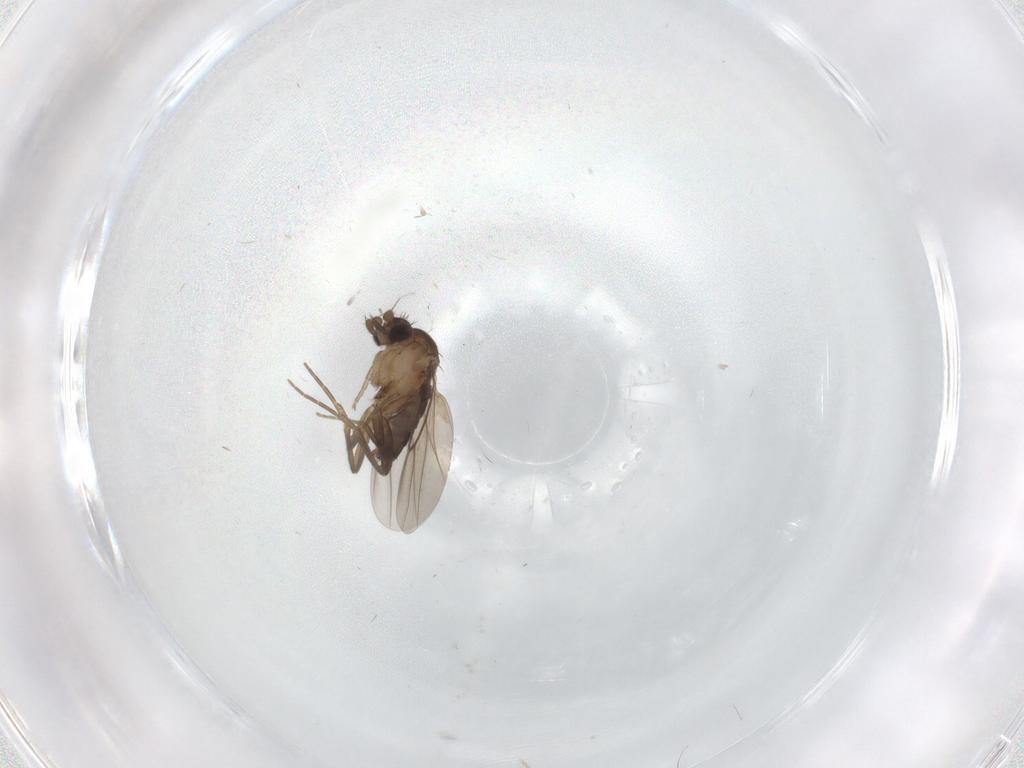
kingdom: Animalia
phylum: Arthropoda
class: Insecta
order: Diptera
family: Phoridae
